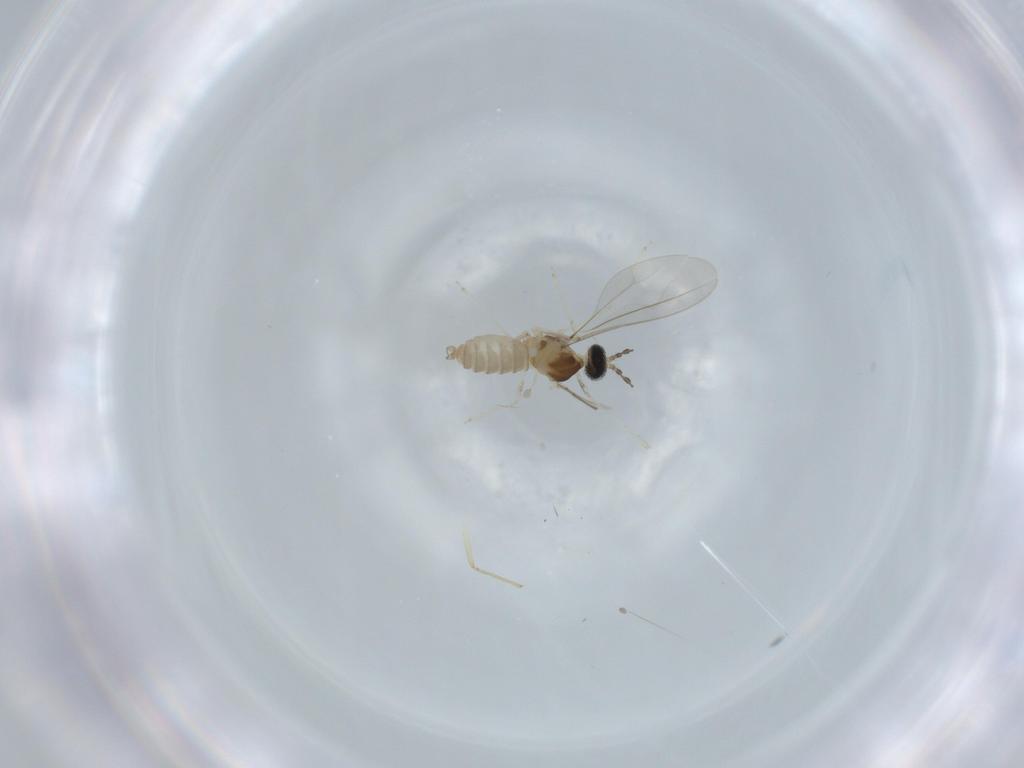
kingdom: Animalia
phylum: Arthropoda
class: Insecta
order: Diptera
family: Cecidomyiidae
